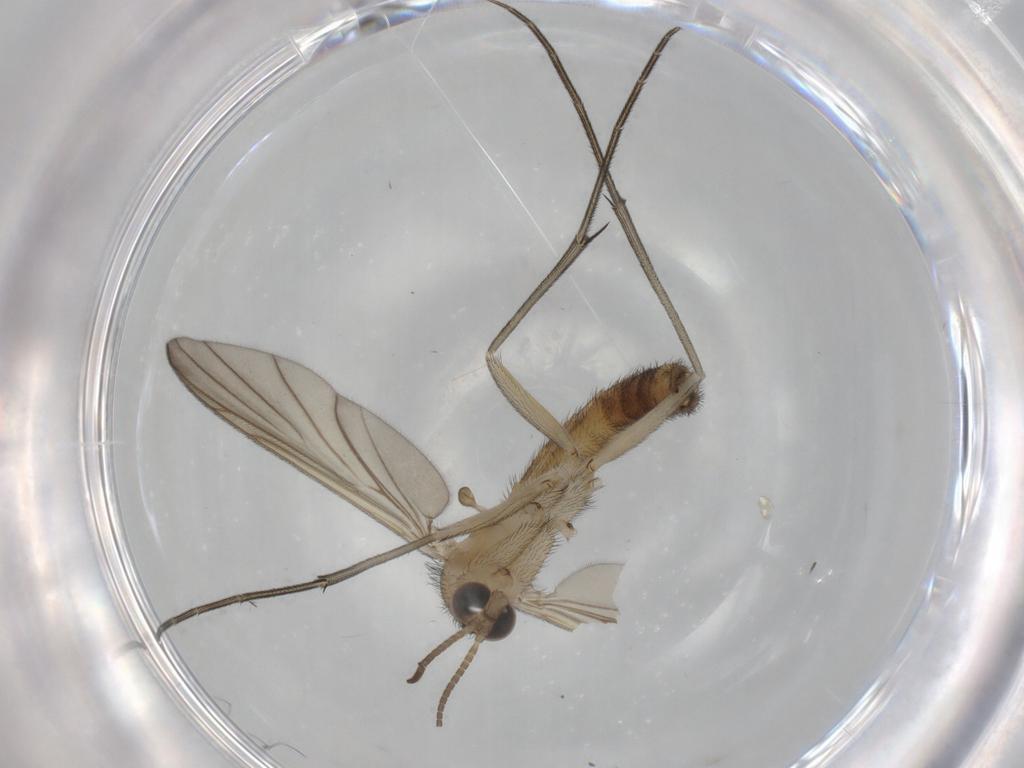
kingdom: Animalia
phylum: Arthropoda
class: Insecta
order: Diptera
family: Keroplatidae
